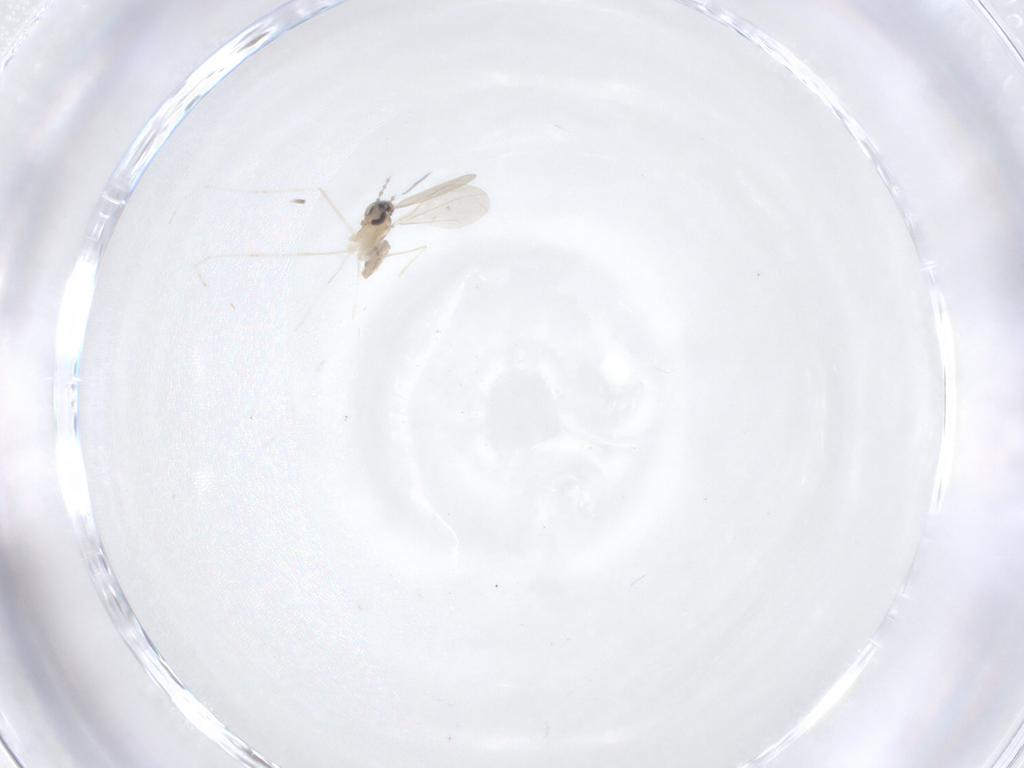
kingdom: Animalia
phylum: Arthropoda
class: Insecta
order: Diptera
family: Cecidomyiidae
